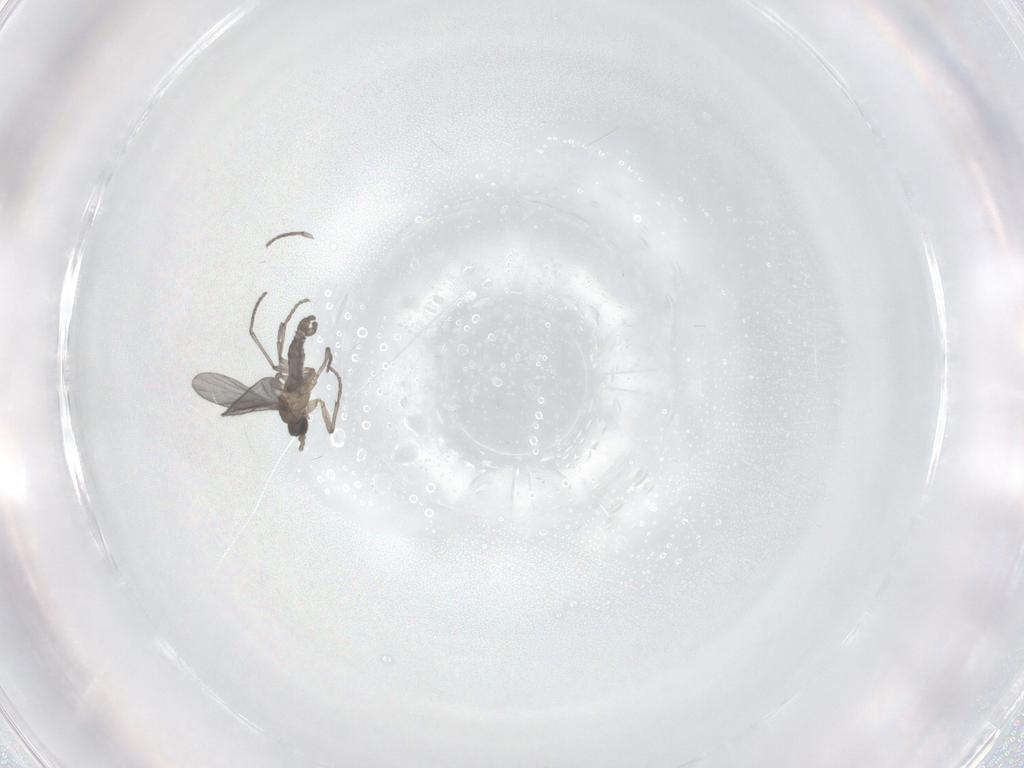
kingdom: Animalia
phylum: Arthropoda
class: Insecta
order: Diptera
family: Sciaridae
